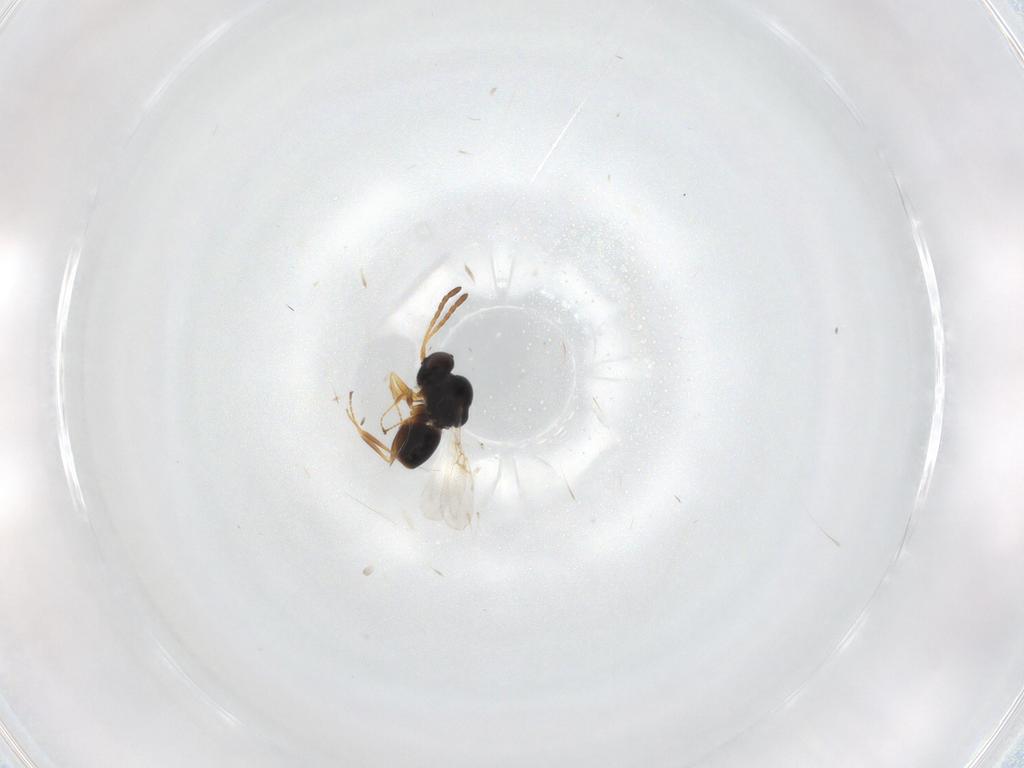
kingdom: Animalia
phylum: Arthropoda
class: Insecta
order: Hymenoptera
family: Figitidae
